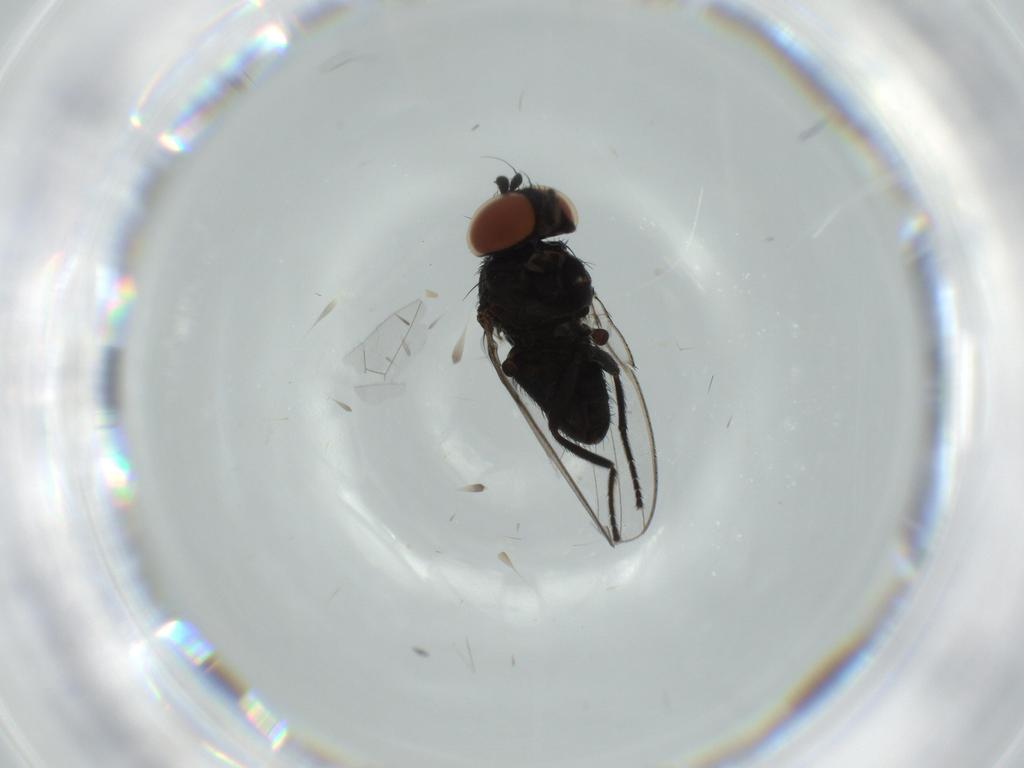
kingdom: Animalia
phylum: Arthropoda
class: Insecta
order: Diptera
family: Milichiidae
